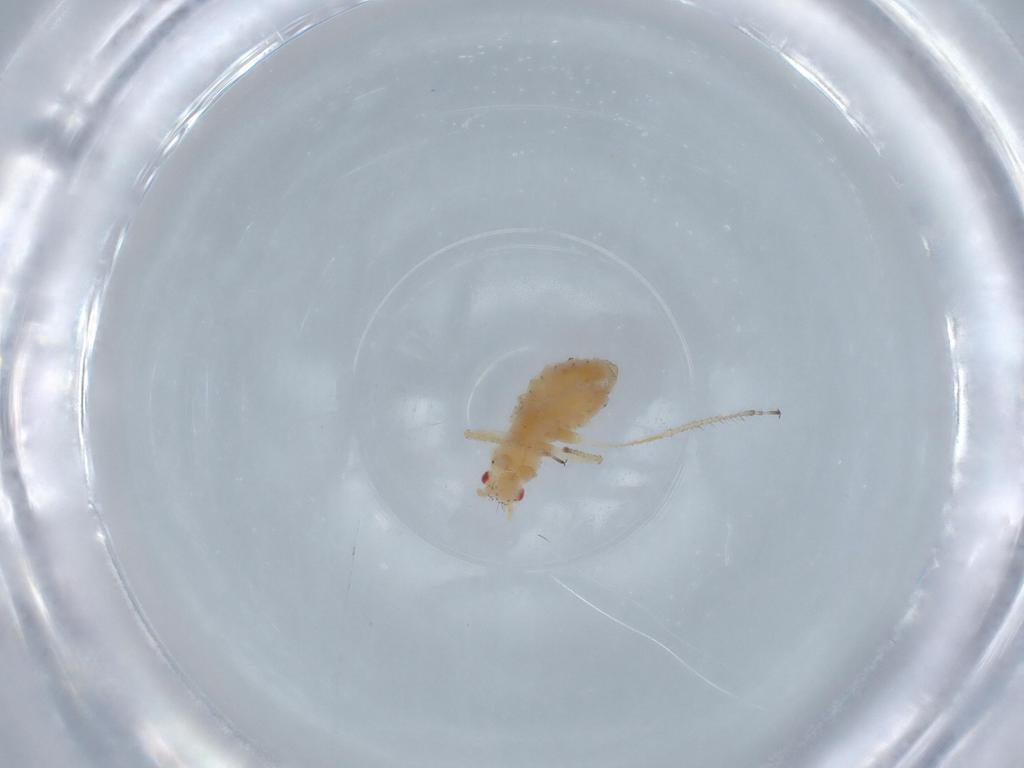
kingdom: Animalia
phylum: Arthropoda
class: Insecta
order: Hemiptera
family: Aphididae
